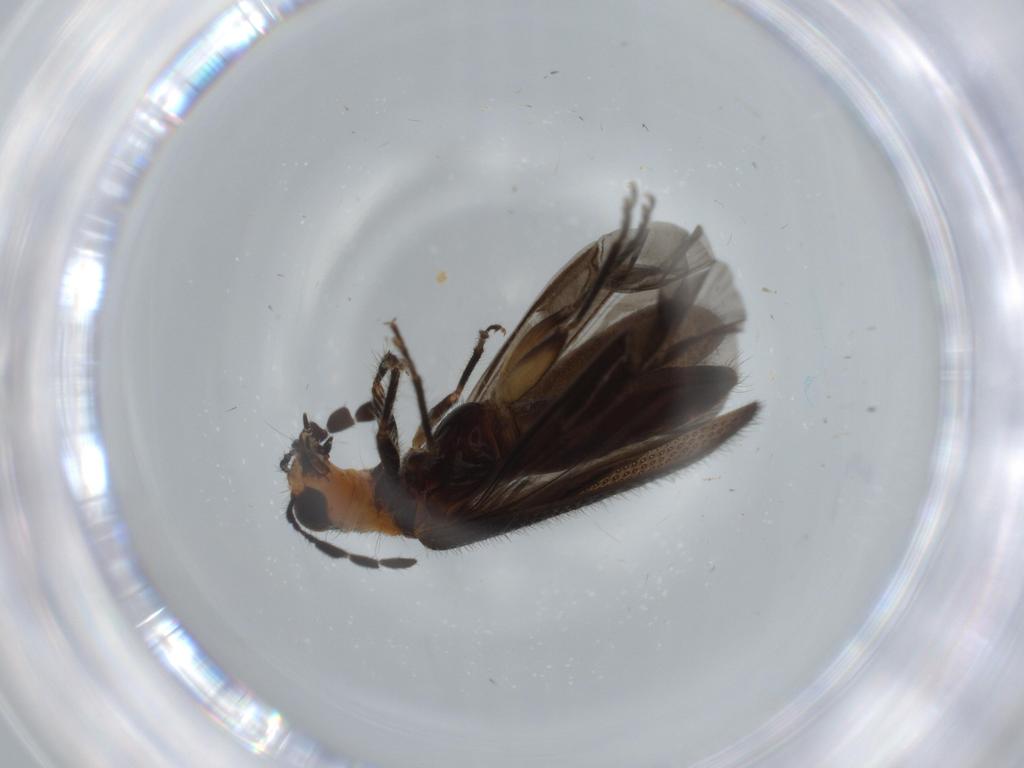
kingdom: Animalia
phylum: Arthropoda
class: Insecta
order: Coleoptera
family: Cleridae
